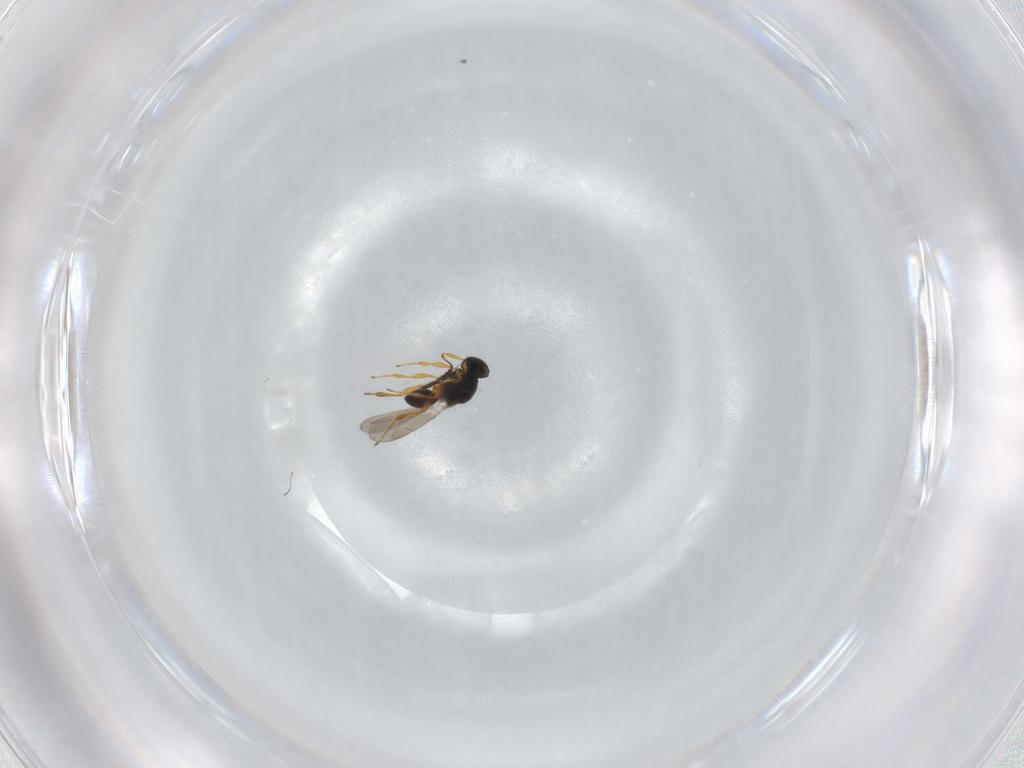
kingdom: Animalia
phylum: Arthropoda
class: Insecta
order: Hymenoptera
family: Platygastridae
